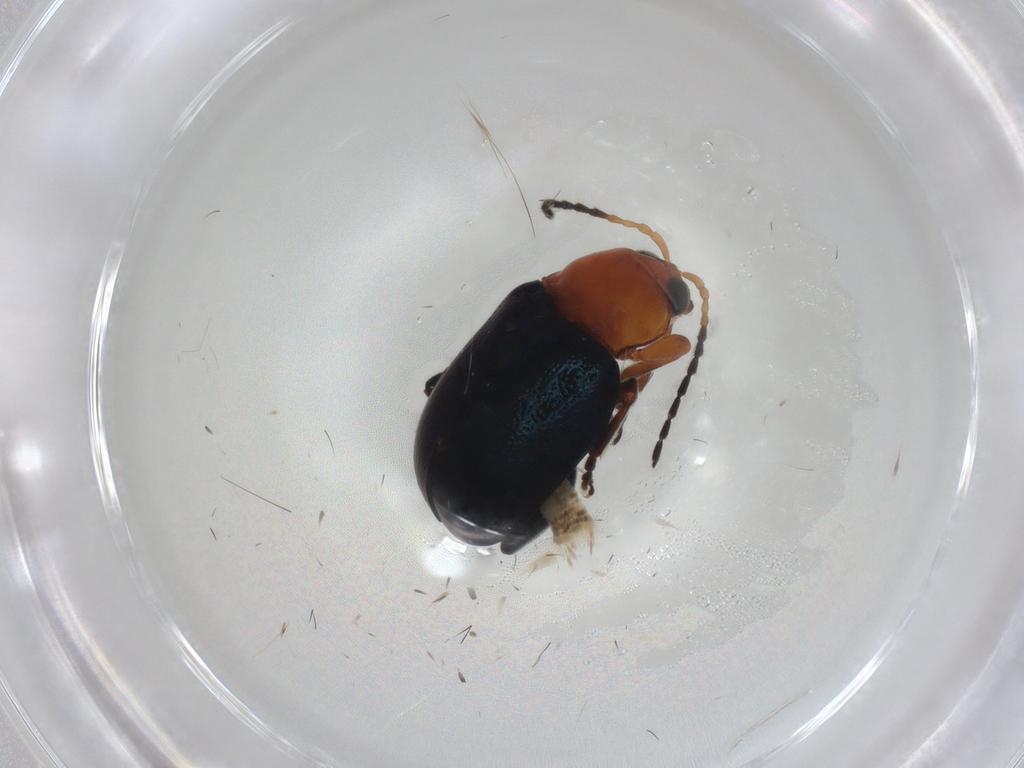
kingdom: Animalia
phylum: Arthropoda
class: Insecta
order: Coleoptera
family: Chrysomelidae
